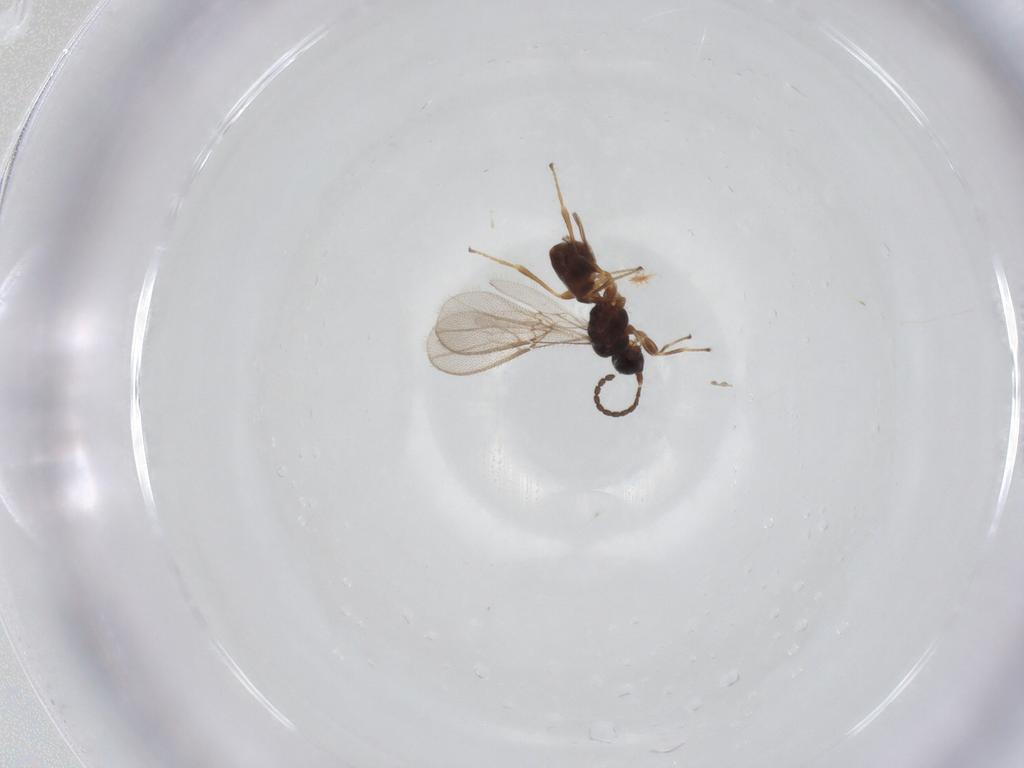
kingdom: Animalia
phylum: Arthropoda
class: Insecta
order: Hymenoptera
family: Braconidae
